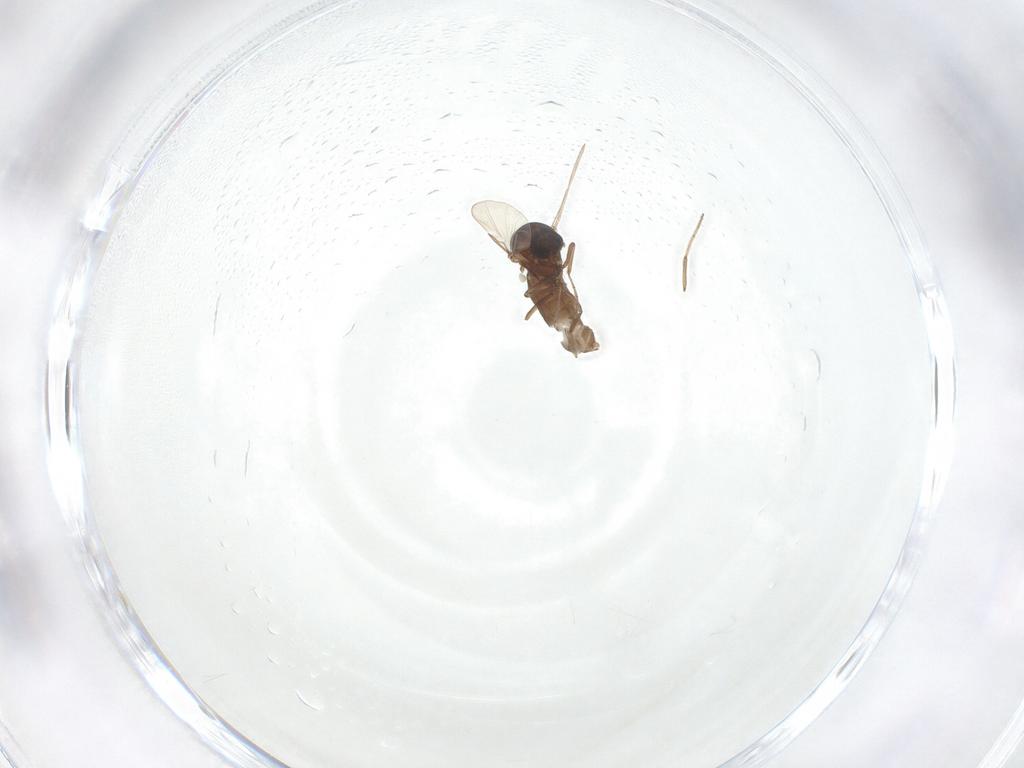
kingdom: Animalia
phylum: Arthropoda
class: Insecta
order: Diptera
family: Ceratopogonidae
